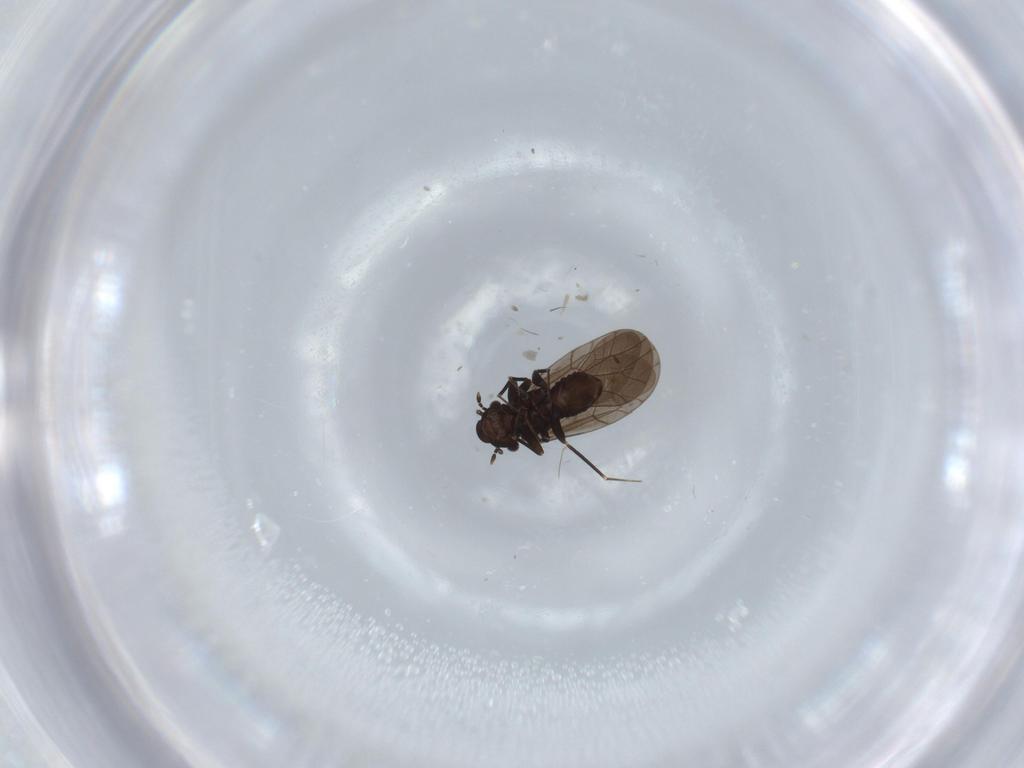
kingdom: Animalia
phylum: Arthropoda
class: Insecta
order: Psocodea
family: Lepidopsocidae
